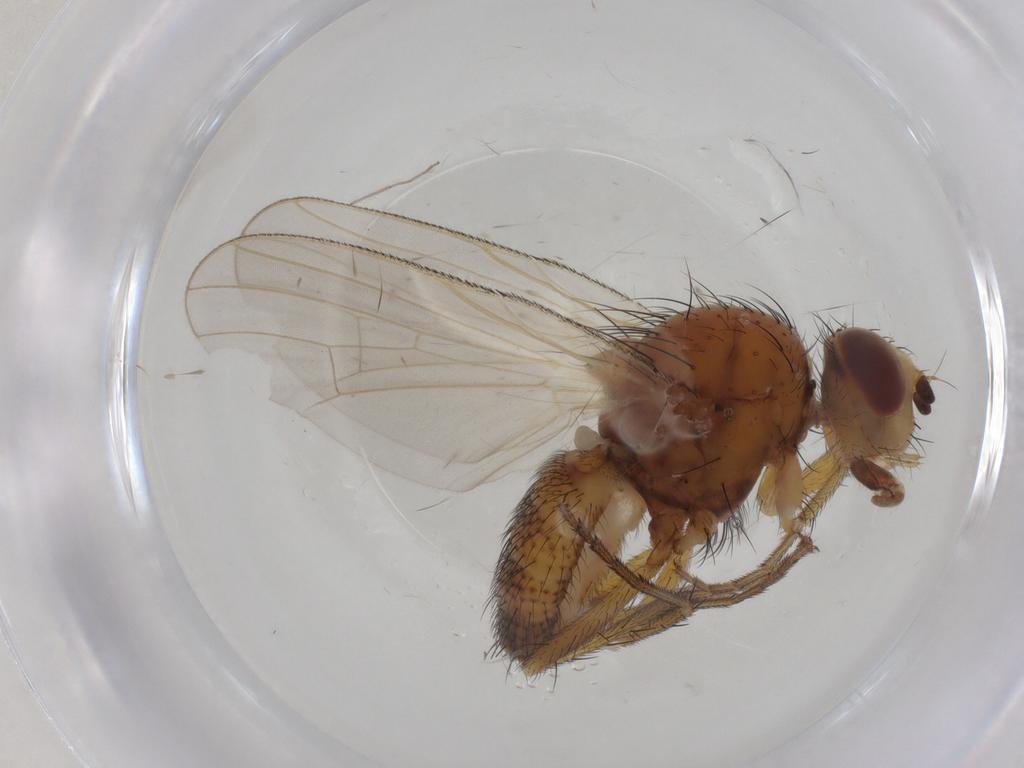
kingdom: Animalia
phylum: Arthropoda
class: Insecta
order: Diptera
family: Chironomidae
